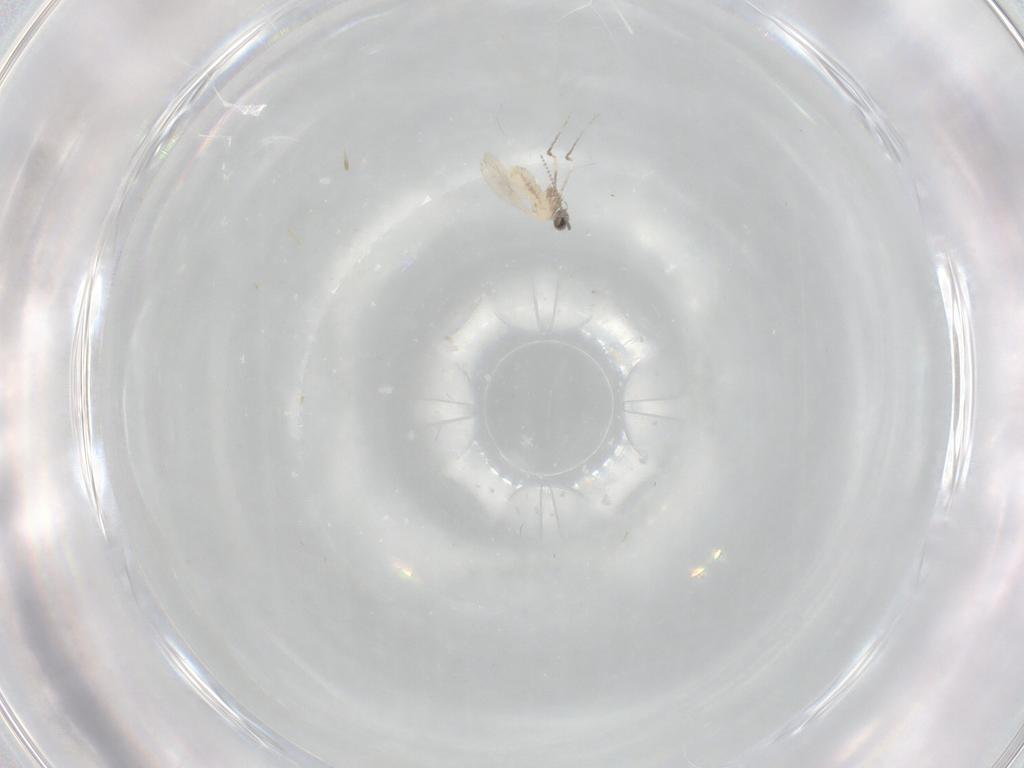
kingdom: Animalia
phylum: Arthropoda
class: Insecta
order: Diptera
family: Cecidomyiidae
